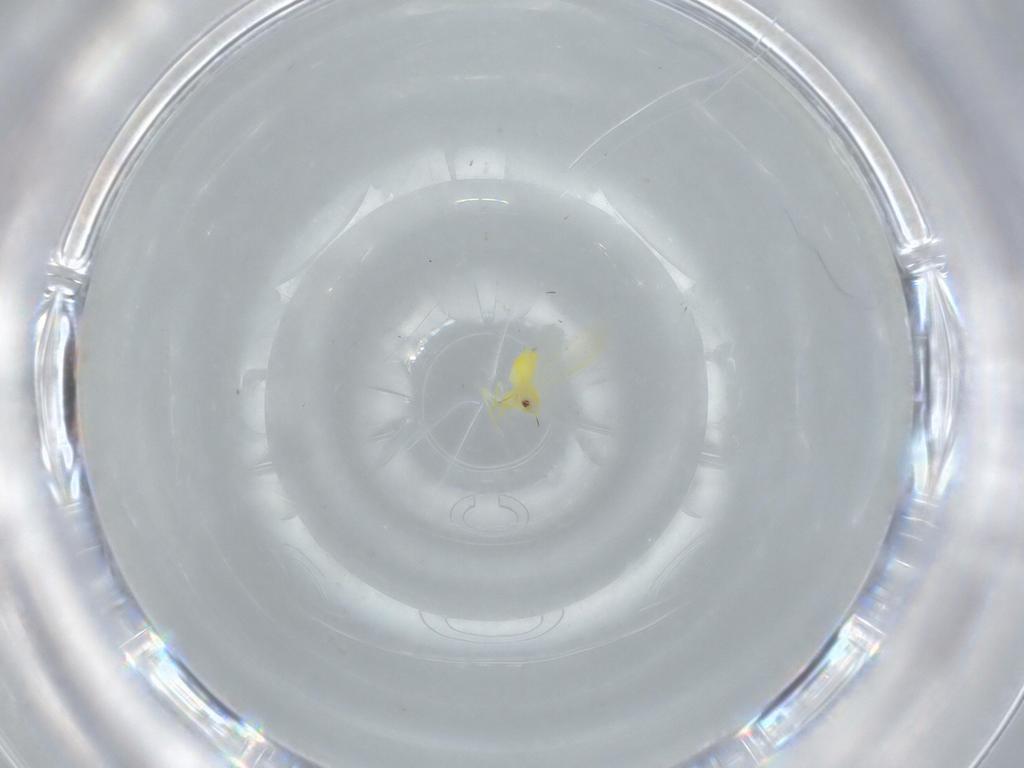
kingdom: Animalia
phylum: Arthropoda
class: Insecta
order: Hemiptera
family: Aleyrodidae
